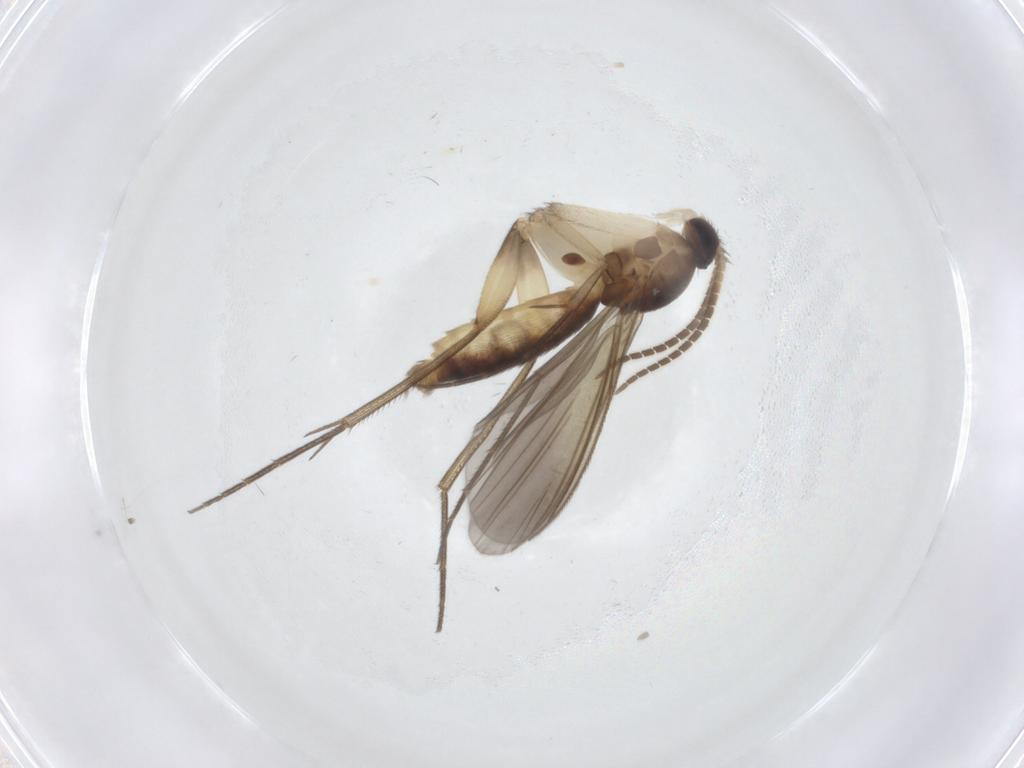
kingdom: Animalia
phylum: Arthropoda
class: Insecta
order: Diptera
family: Mycetophilidae
